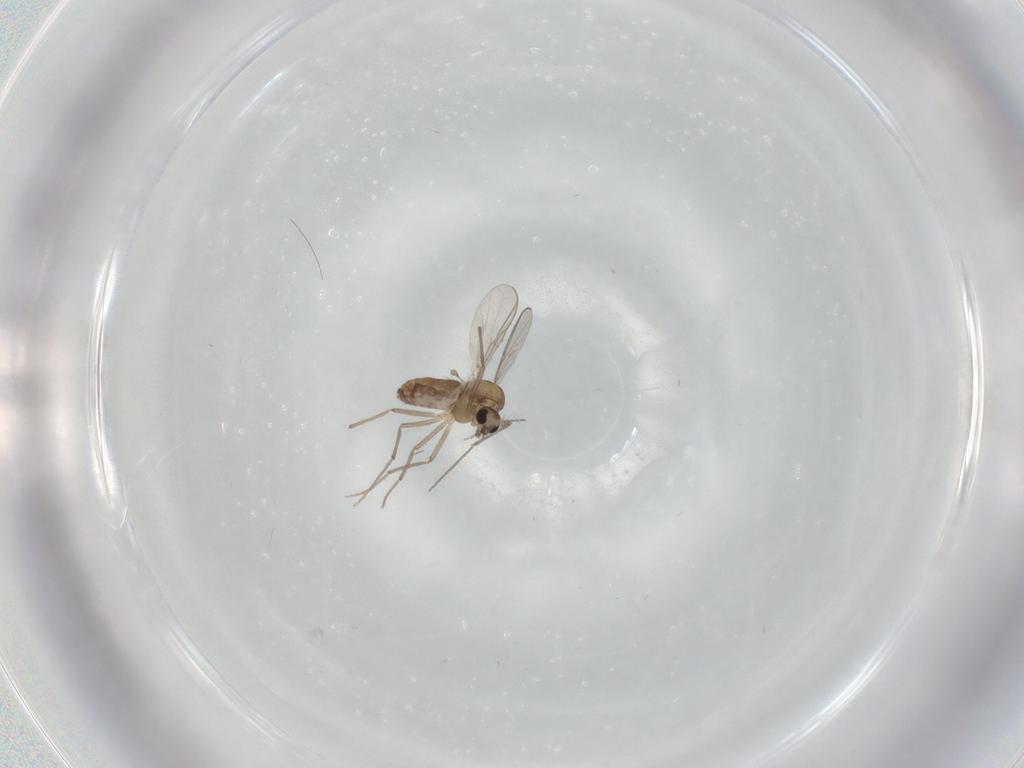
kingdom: Animalia
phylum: Arthropoda
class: Insecta
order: Diptera
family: Chironomidae
